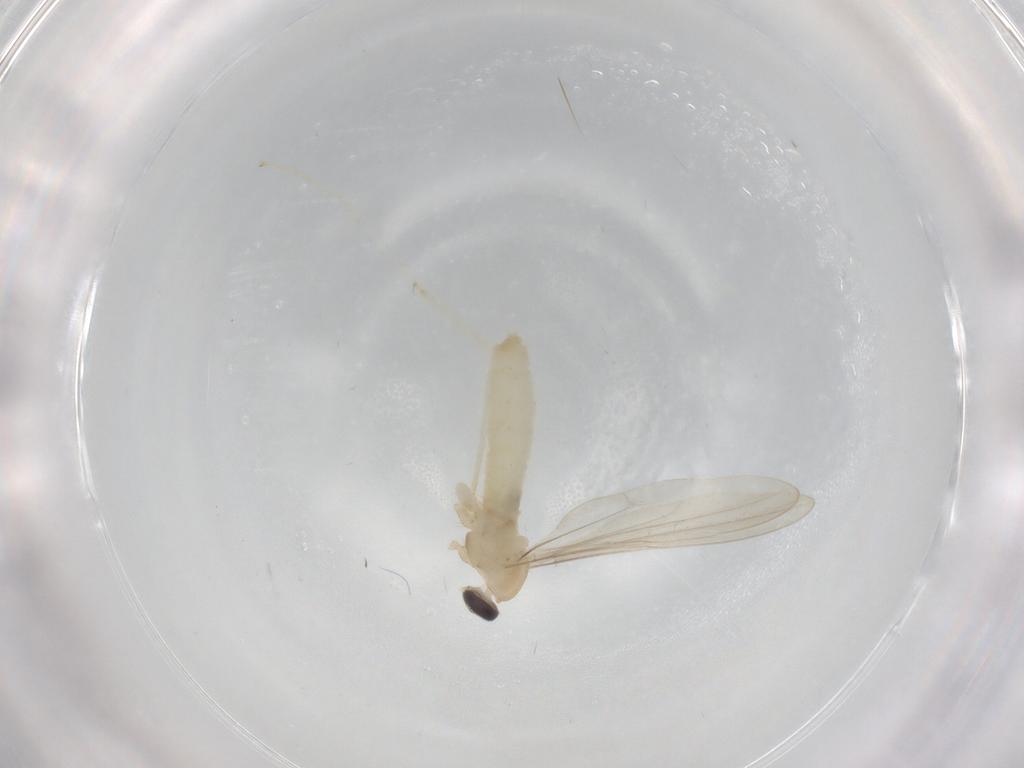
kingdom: Animalia
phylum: Arthropoda
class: Insecta
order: Diptera
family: Cecidomyiidae
